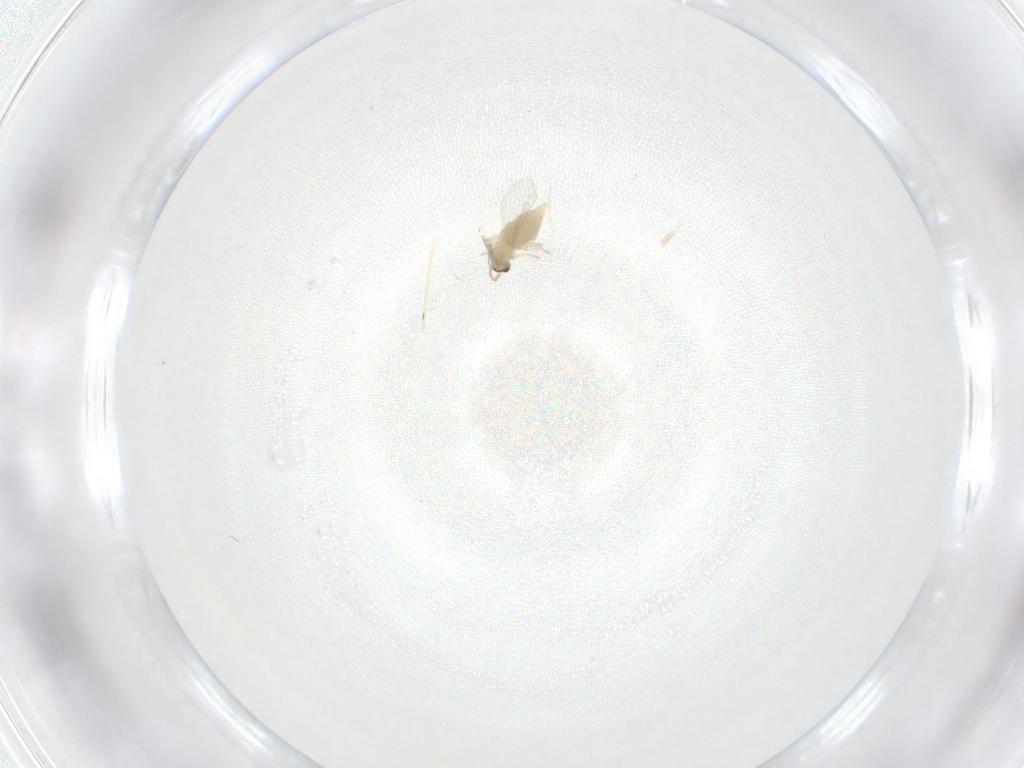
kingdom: Animalia
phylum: Arthropoda
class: Insecta
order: Diptera
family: Cecidomyiidae
